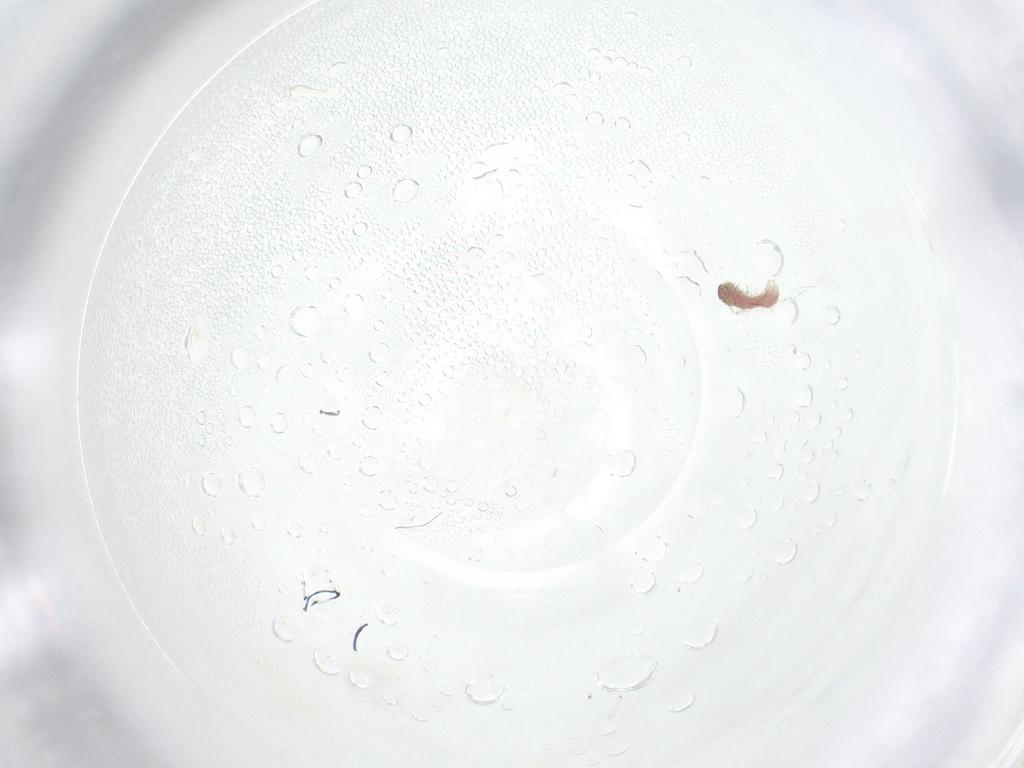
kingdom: Animalia
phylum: Arthropoda
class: Insecta
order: Lepidoptera
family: Xyloryctidae
